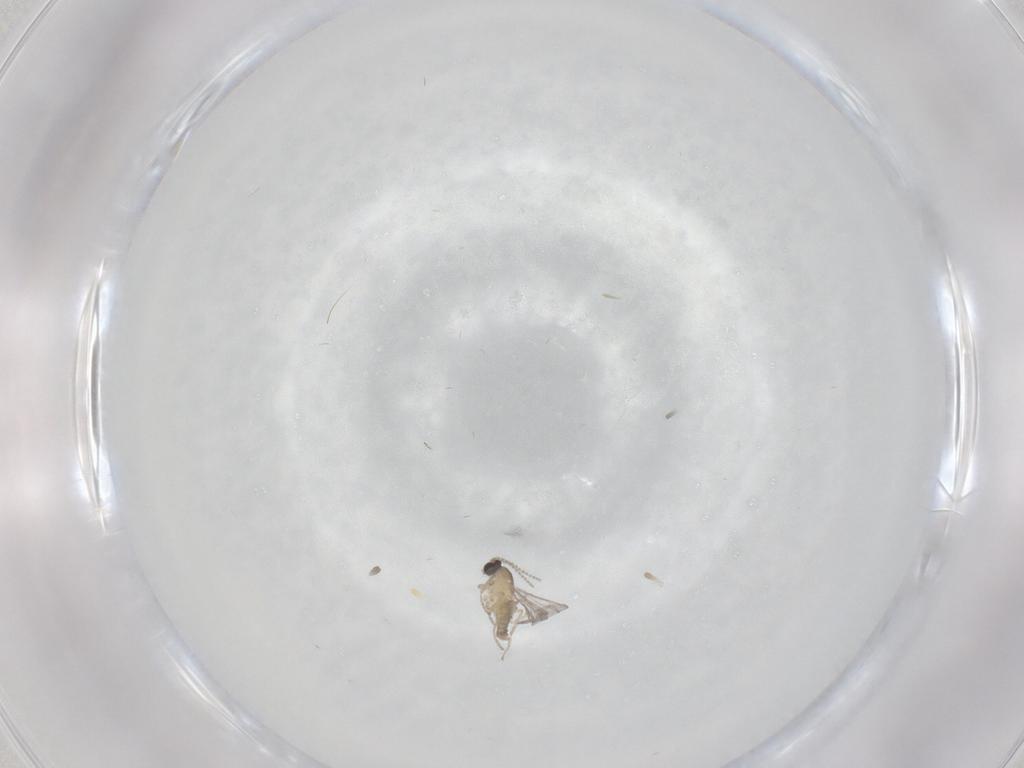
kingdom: Animalia
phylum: Arthropoda
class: Insecta
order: Diptera
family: Cecidomyiidae
